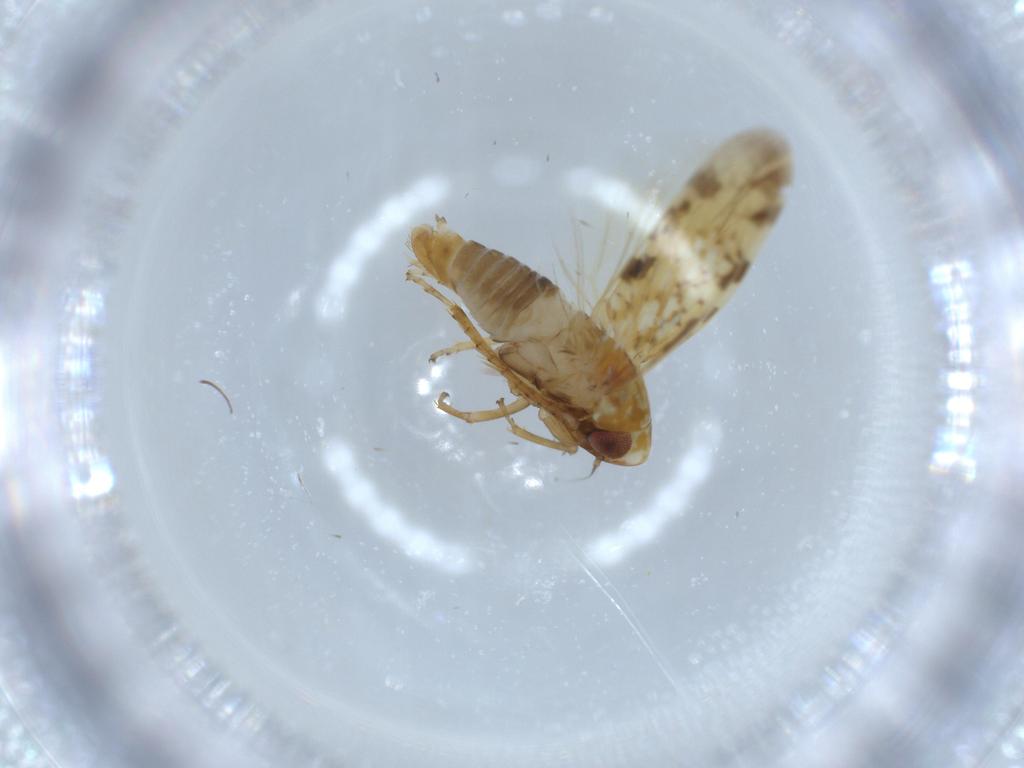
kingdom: Animalia
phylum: Arthropoda
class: Insecta
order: Hemiptera
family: Cicadellidae
